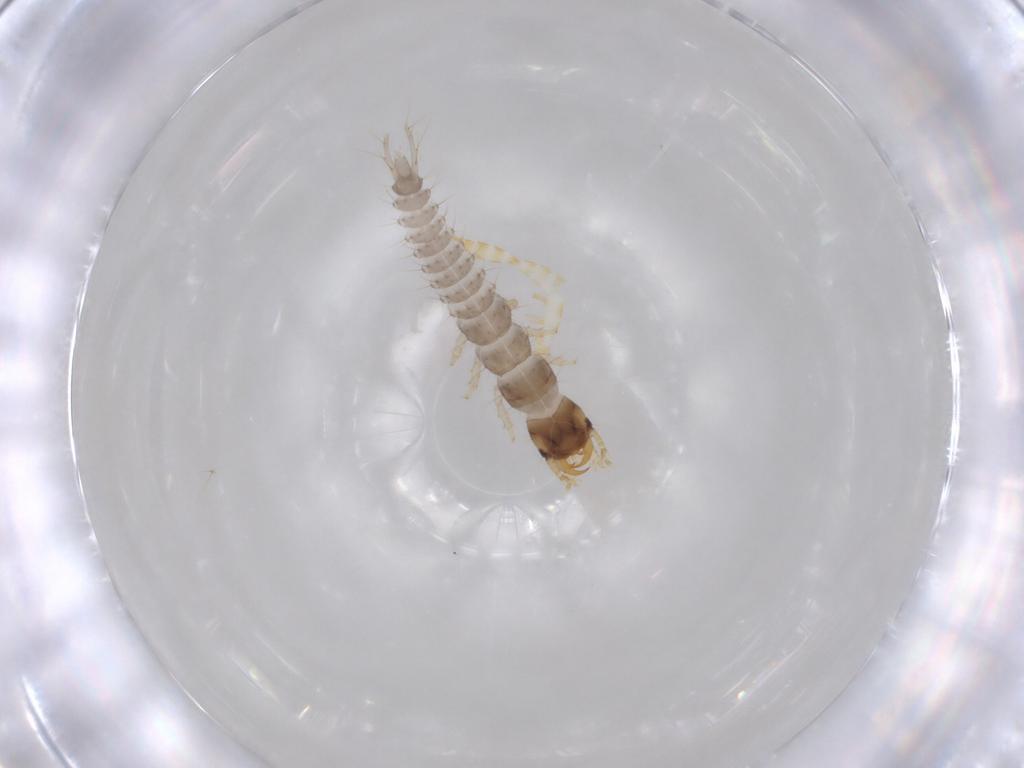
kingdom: Animalia
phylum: Arthropoda
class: Insecta
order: Coleoptera
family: Carabidae
